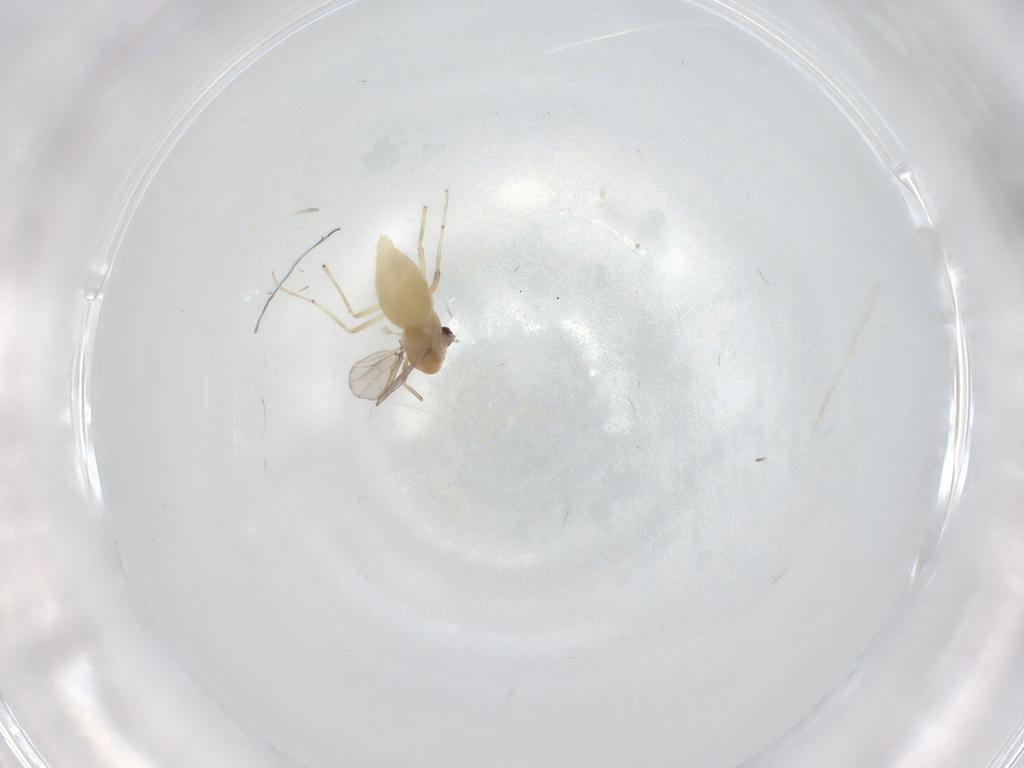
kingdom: Animalia
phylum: Arthropoda
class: Insecta
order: Diptera
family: Chironomidae
